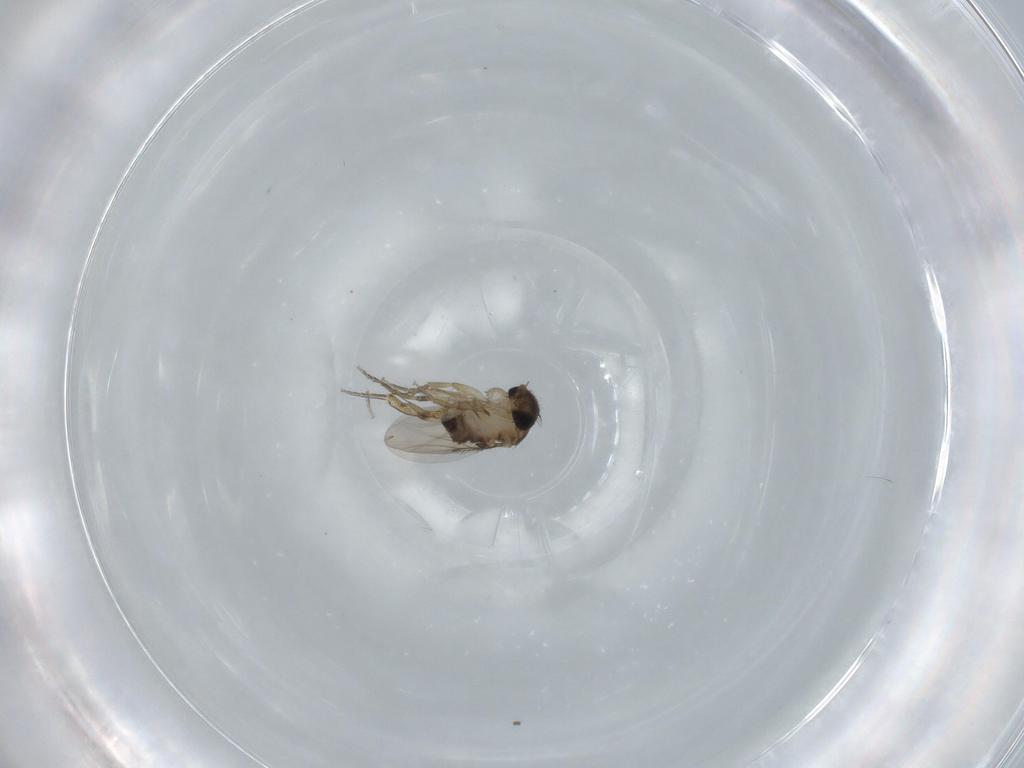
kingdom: Animalia
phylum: Arthropoda
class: Insecta
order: Diptera
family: Phoridae
